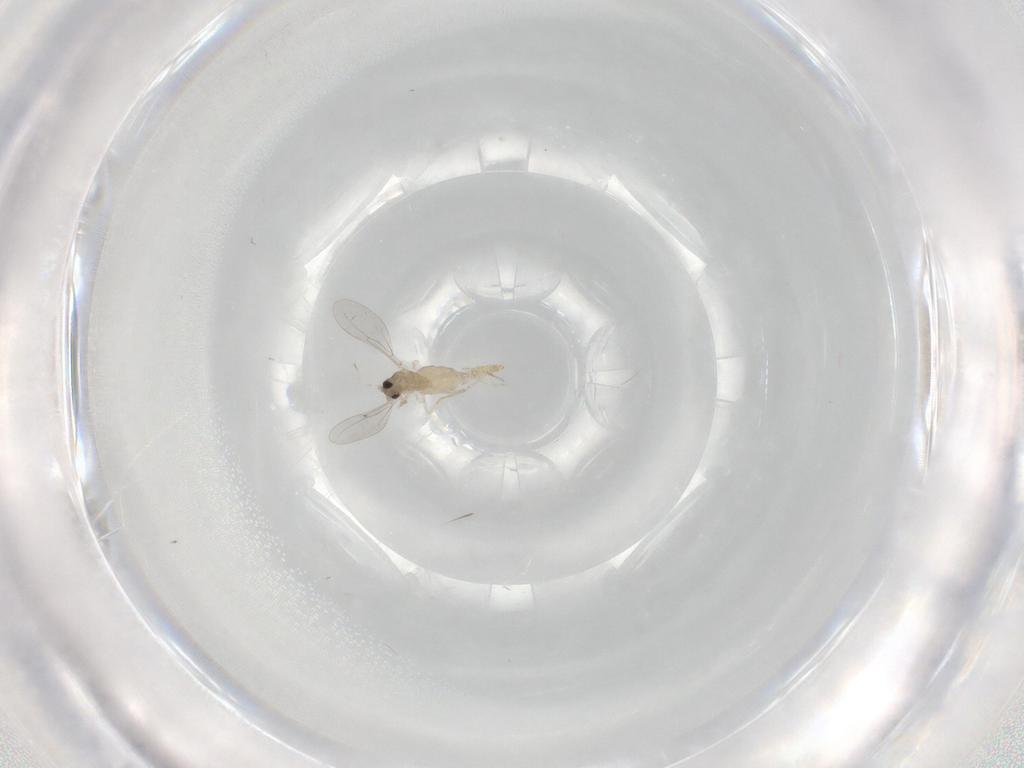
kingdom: Animalia
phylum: Arthropoda
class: Insecta
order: Diptera
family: Cecidomyiidae
